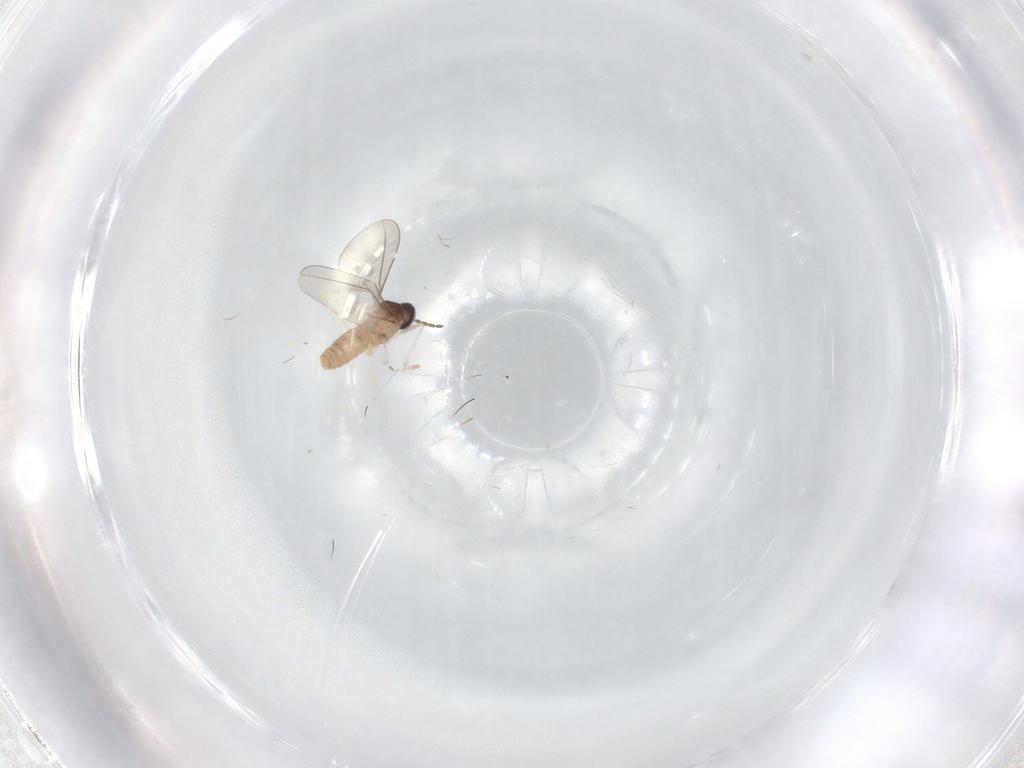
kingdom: Animalia
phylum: Arthropoda
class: Insecta
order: Diptera
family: Cecidomyiidae
